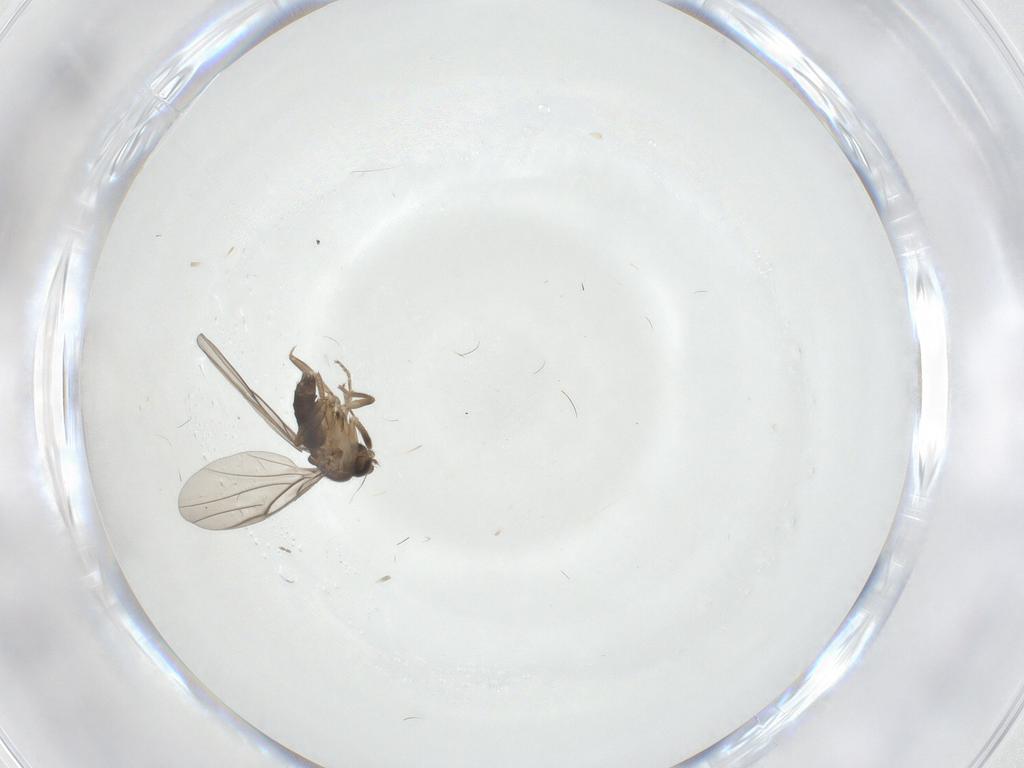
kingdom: Animalia
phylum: Arthropoda
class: Insecta
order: Diptera
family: Phoridae
